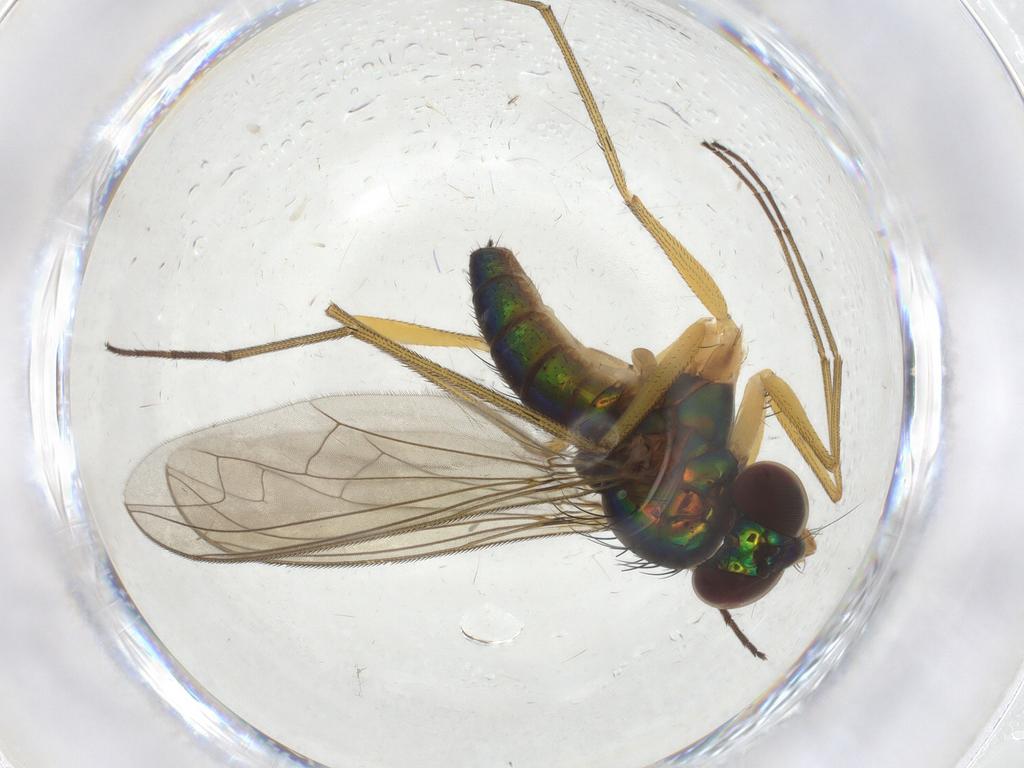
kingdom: Animalia
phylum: Arthropoda
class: Insecta
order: Diptera
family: Dolichopodidae
